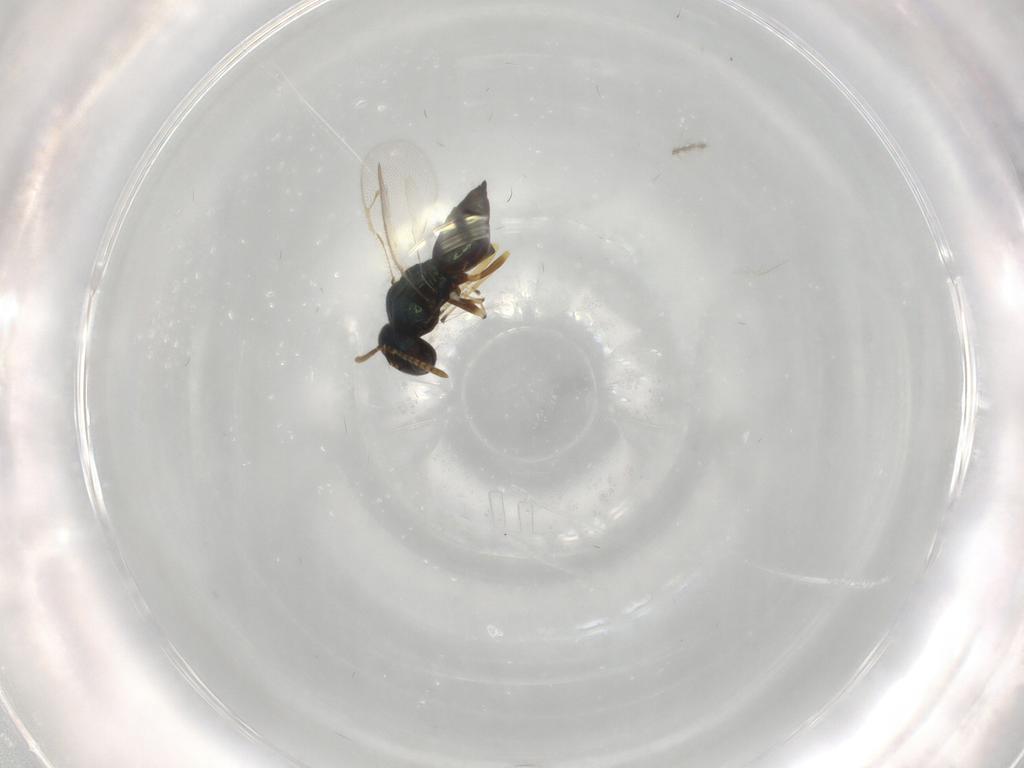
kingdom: Animalia
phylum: Arthropoda
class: Insecta
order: Hymenoptera
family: Pteromalidae
